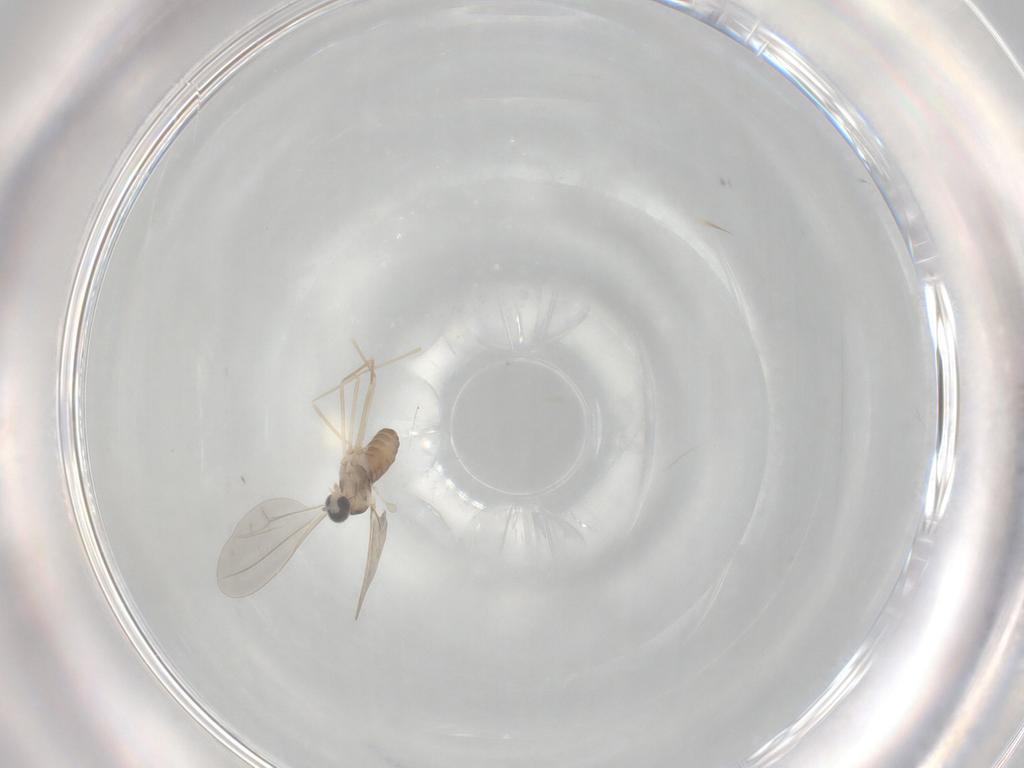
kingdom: Animalia
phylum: Arthropoda
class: Insecta
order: Diptera
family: Cecidomyiidae
